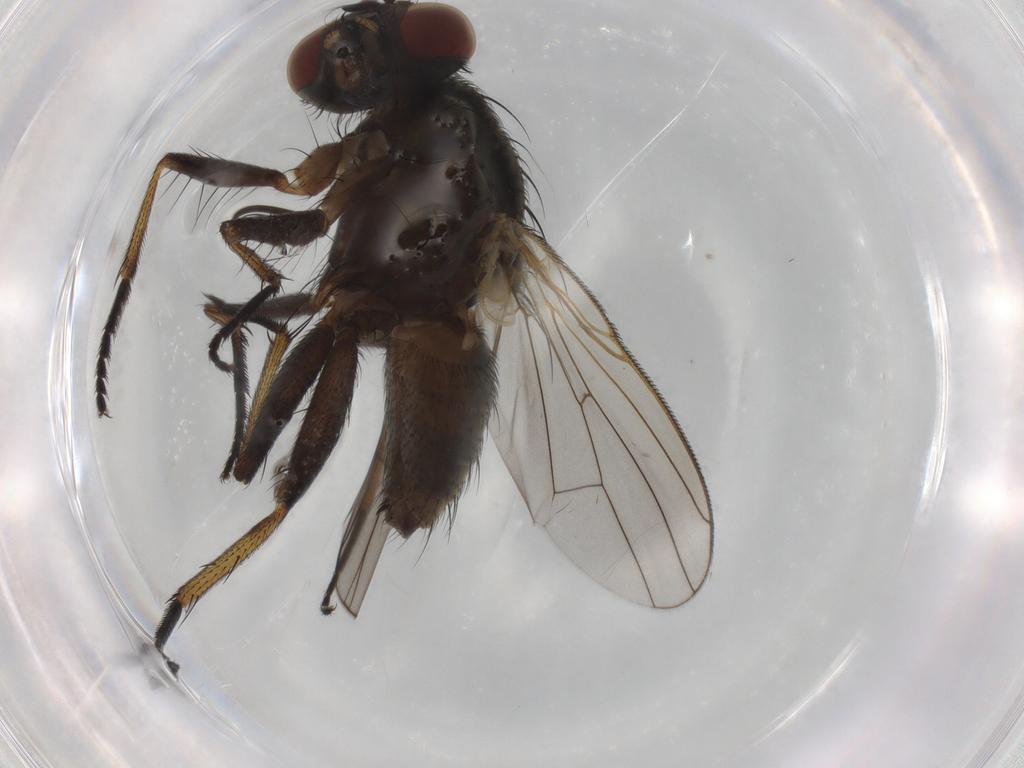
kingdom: Animalia
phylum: Arthropoda
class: Insecta
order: Diptera
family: Muscidae
